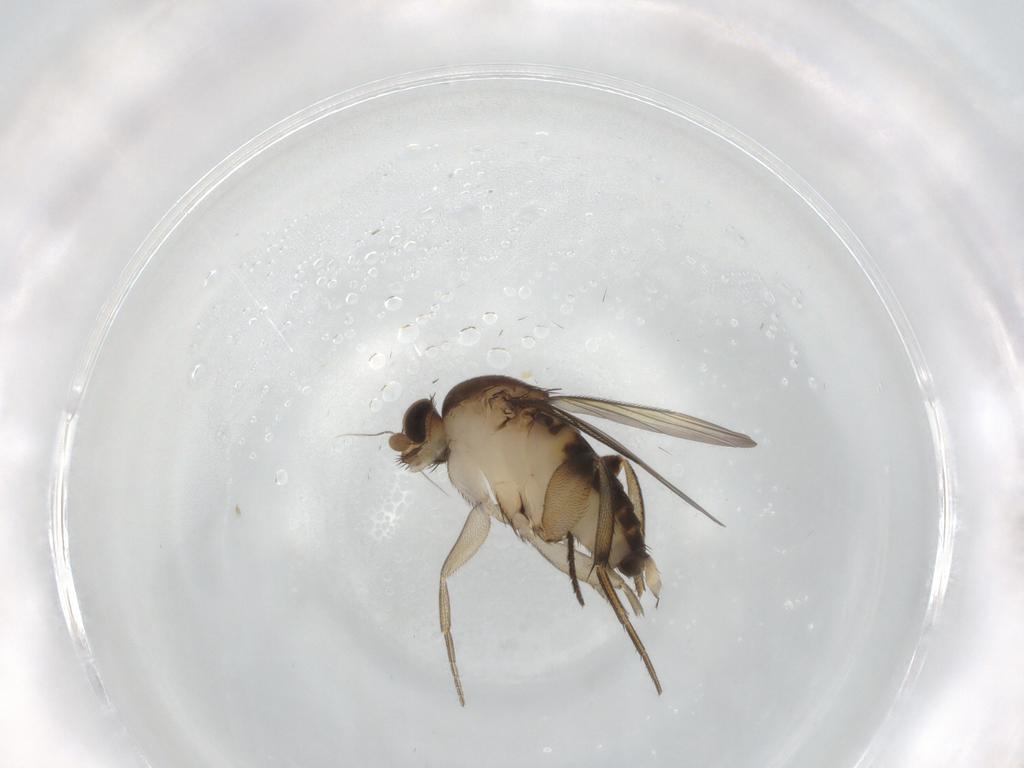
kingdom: Animalia
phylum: Arthropoda
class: Insecta
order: Diptera
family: Phoridae
